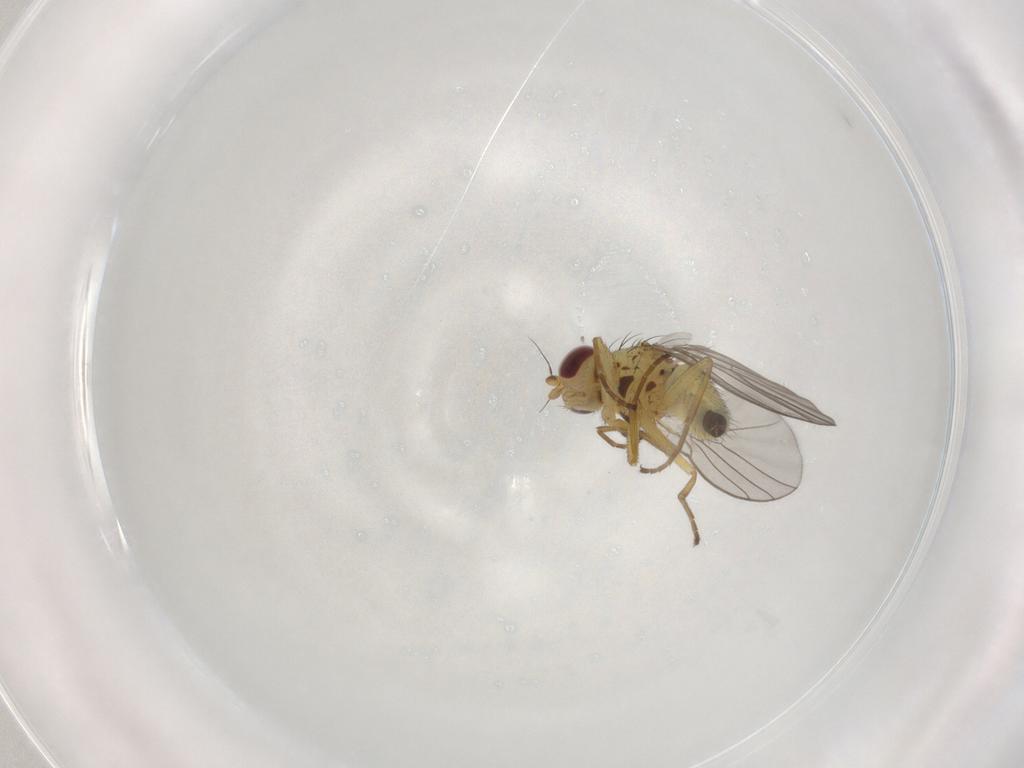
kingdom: Animalia
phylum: Arthropoda
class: Insecta
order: Diptera
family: Agromyzidae
